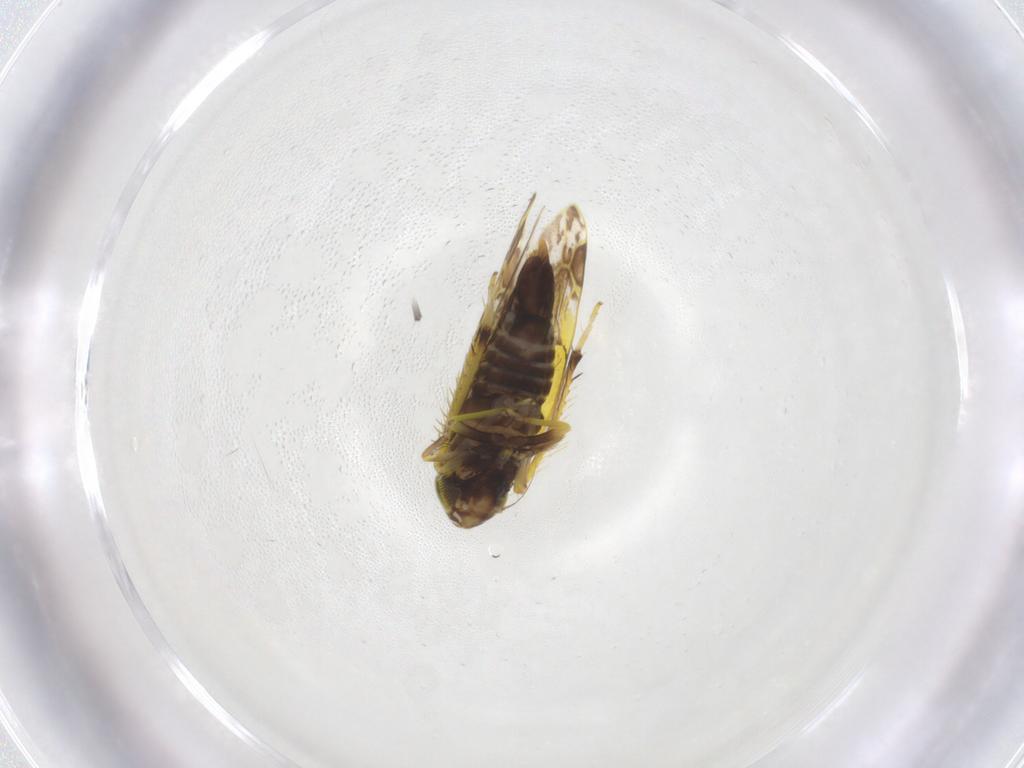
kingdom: Animalia
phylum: Arthropoda
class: Insecta
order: Hemiptera
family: Cicadellidae
